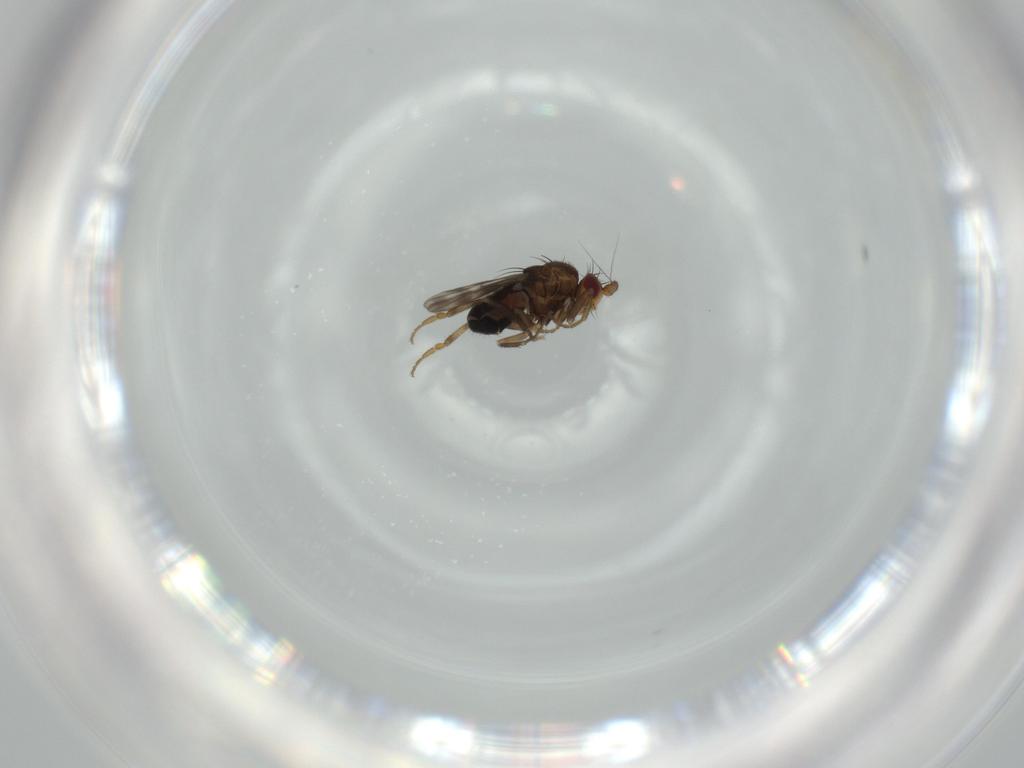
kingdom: Animalia
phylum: Arthropoda
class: Insecta
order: Diptera
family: Sphaeroceridae
